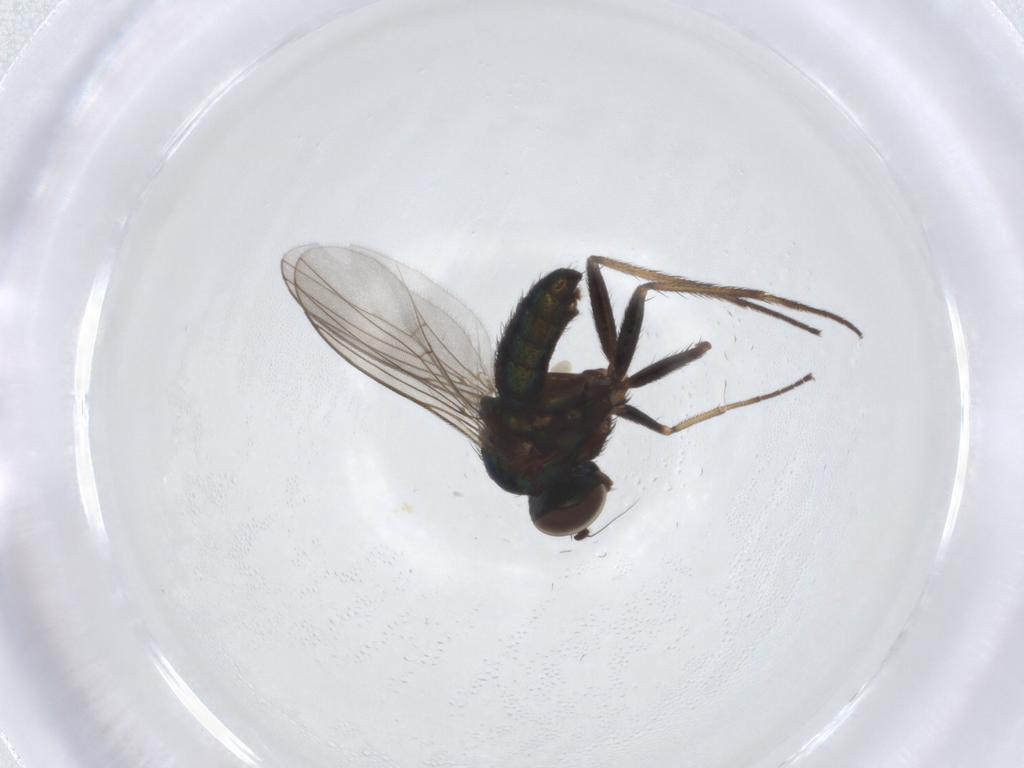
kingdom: Animalia
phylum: Arthropoda
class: Insecta
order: Diptera
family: Dolichopodidae
